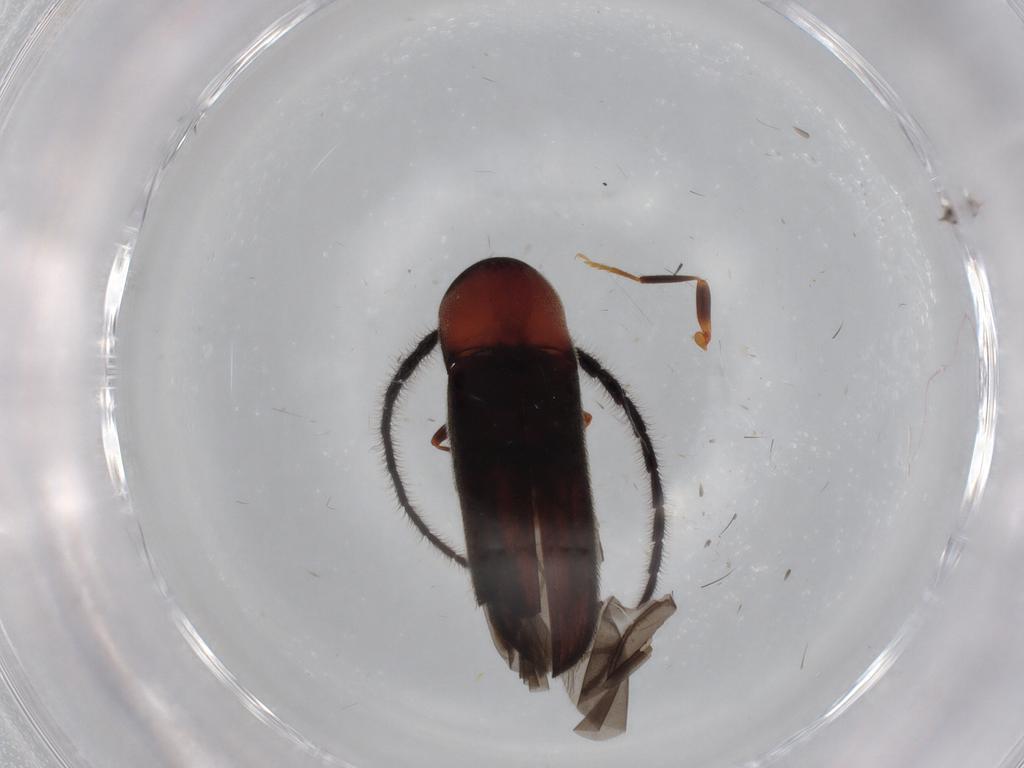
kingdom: Animalia
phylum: Arthropoda
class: Insecta
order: Coleoptera
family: Eucnemidae
